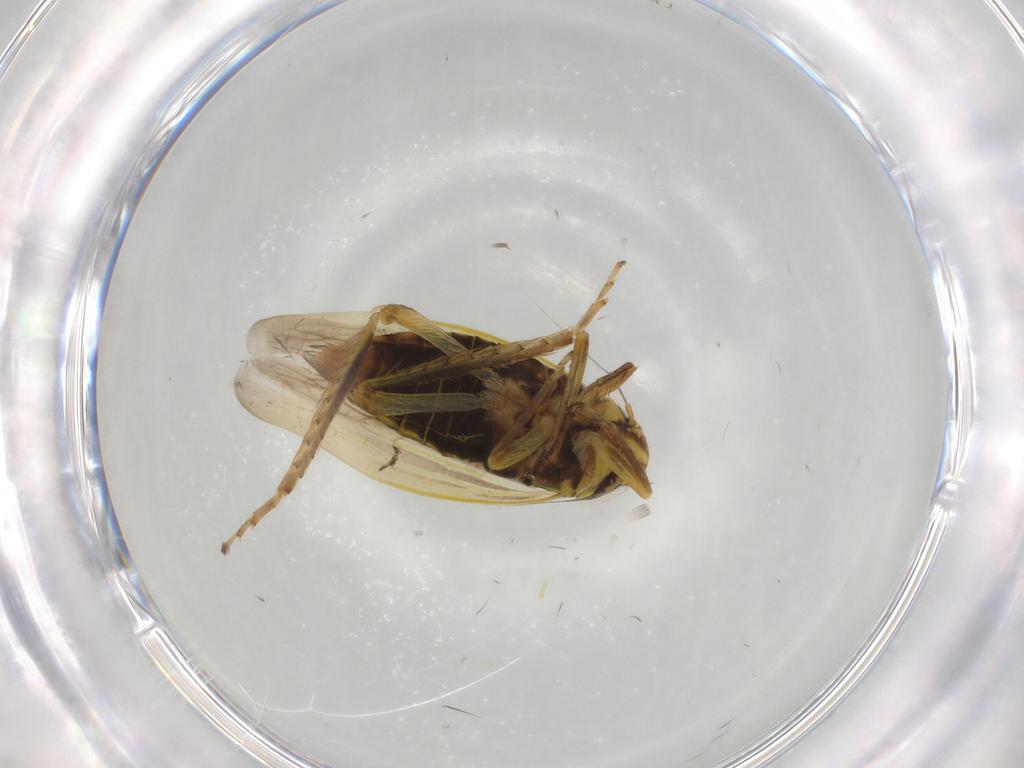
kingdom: Animalia
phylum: Arthropoda
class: Insecta
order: Hemiptera
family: Cicadellidae
